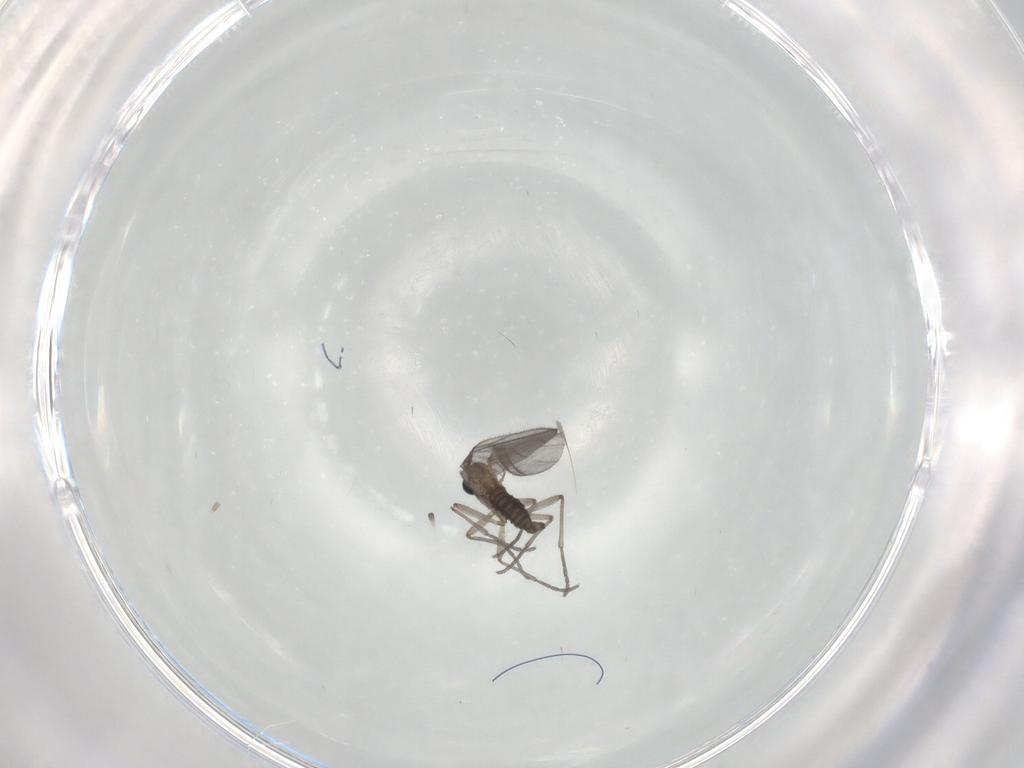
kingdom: Animalia
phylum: Arthropoda
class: Insecta
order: Diptera
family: Sciaridae
